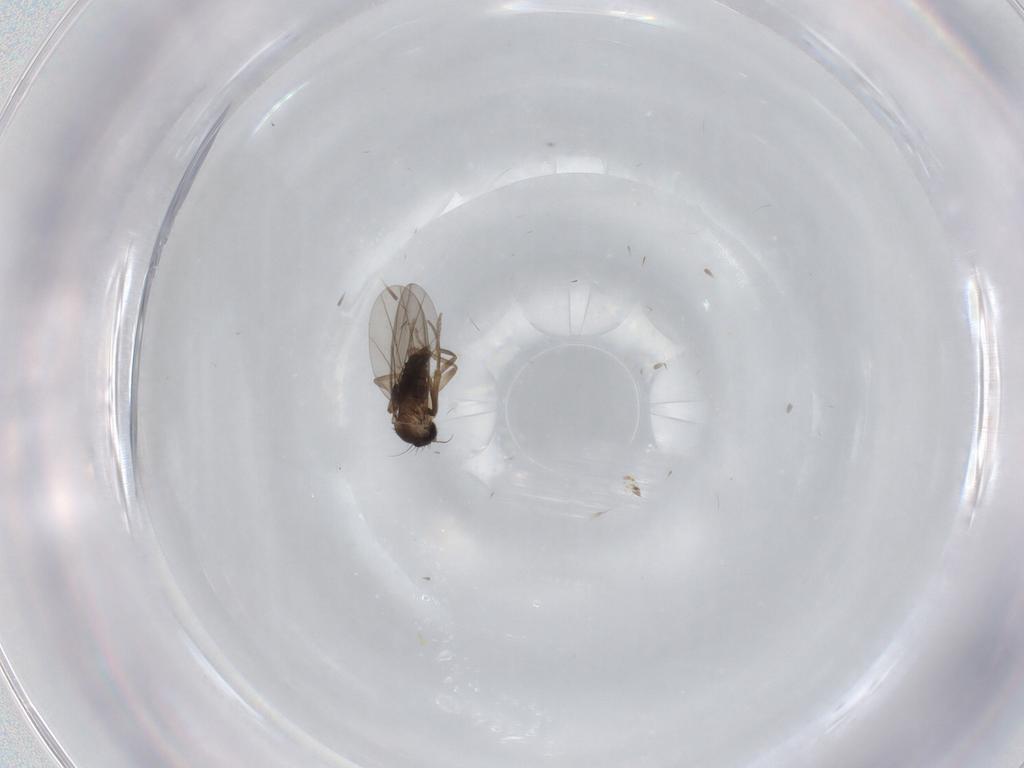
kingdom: Animalia
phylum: Arthropoda
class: Insecta
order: Diptera
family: Phoridae
